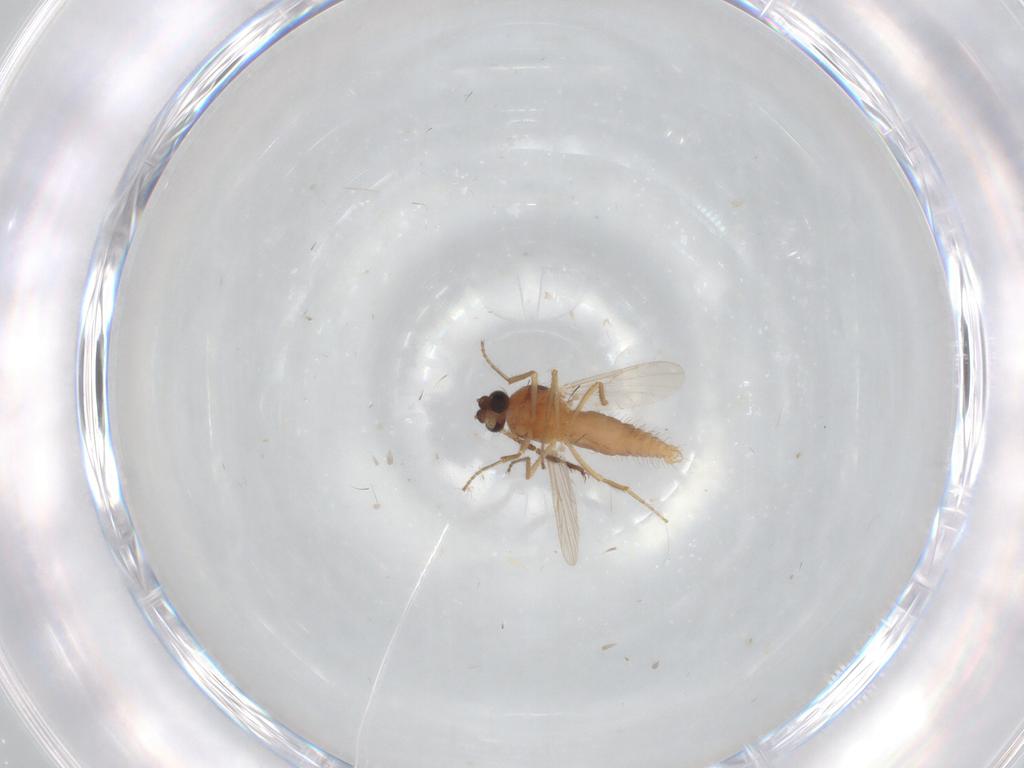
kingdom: Animalia
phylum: Arthropoda
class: Insecta
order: Diptera
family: Ceratopogonidae
